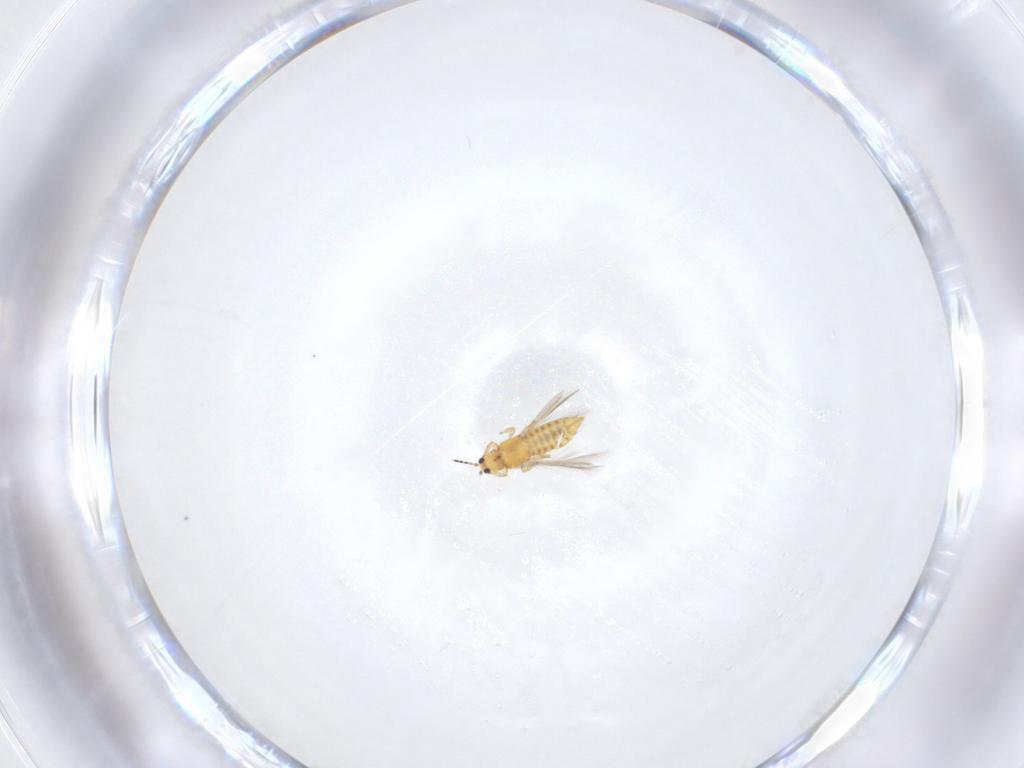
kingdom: Animalia
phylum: Arthropoda
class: Insecta
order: Thysanoptera
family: Thripidae
